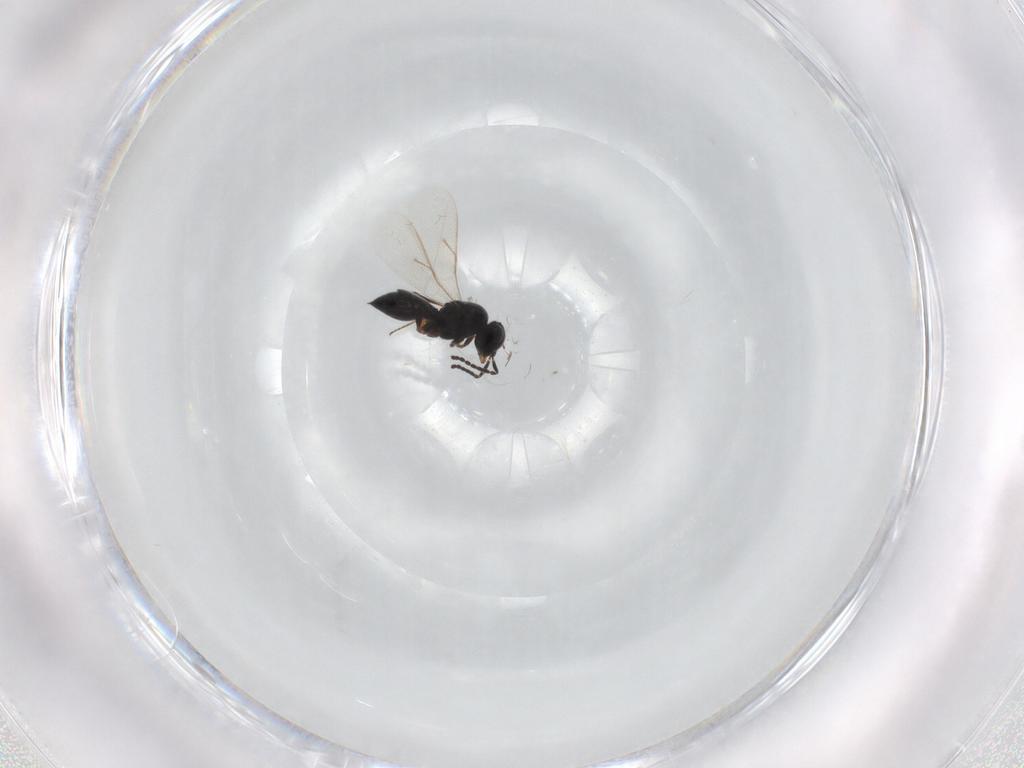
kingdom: Animalia
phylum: Arthropoda
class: Insecta
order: Hymenoptera
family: Scelionidae
